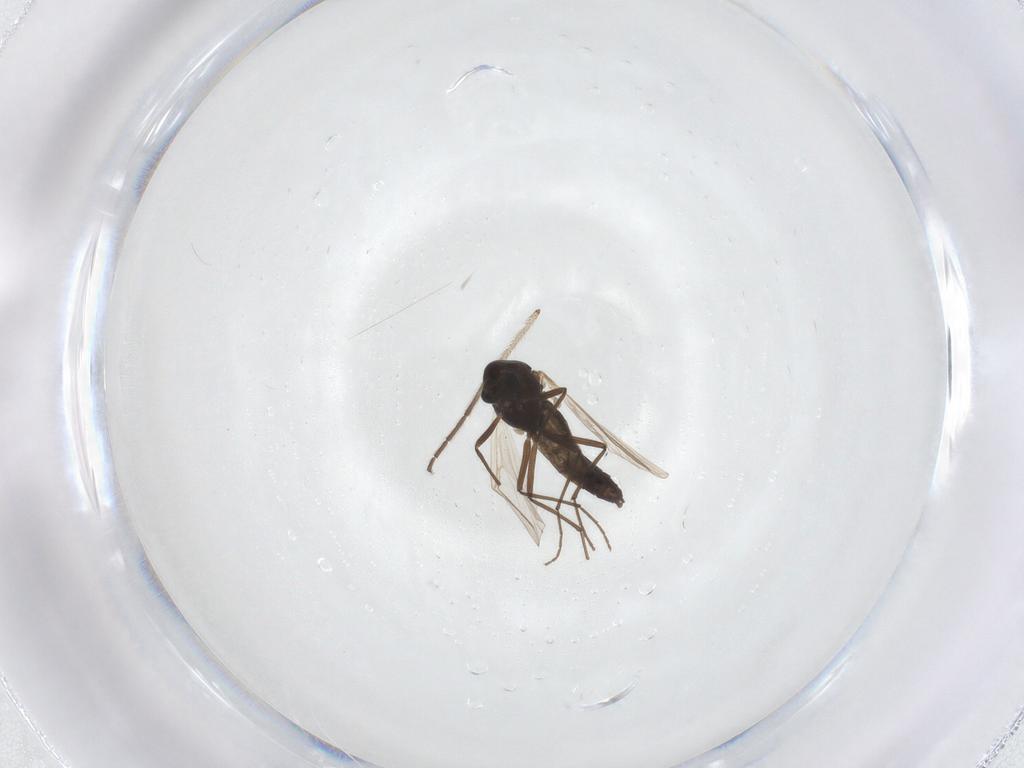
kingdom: Animalia
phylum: Arthropoda
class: Insecta
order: Diptera
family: Chironomidae
